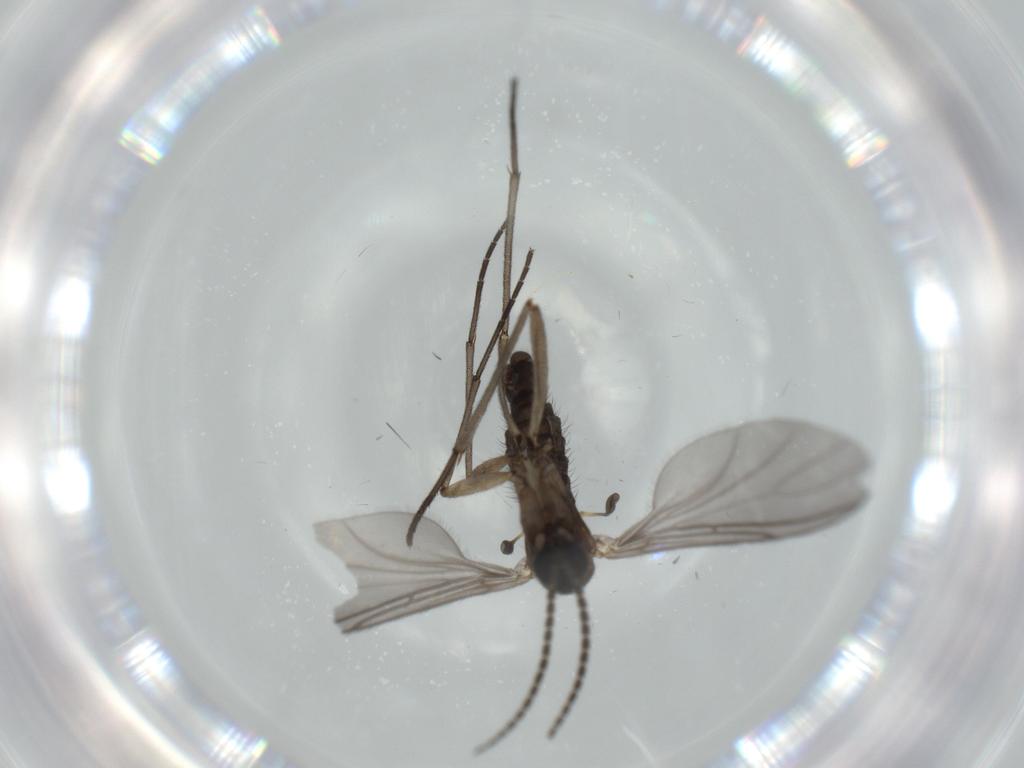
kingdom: Animalia
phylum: Arthropoda
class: Insecta
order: Diptera
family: Sciaridae
